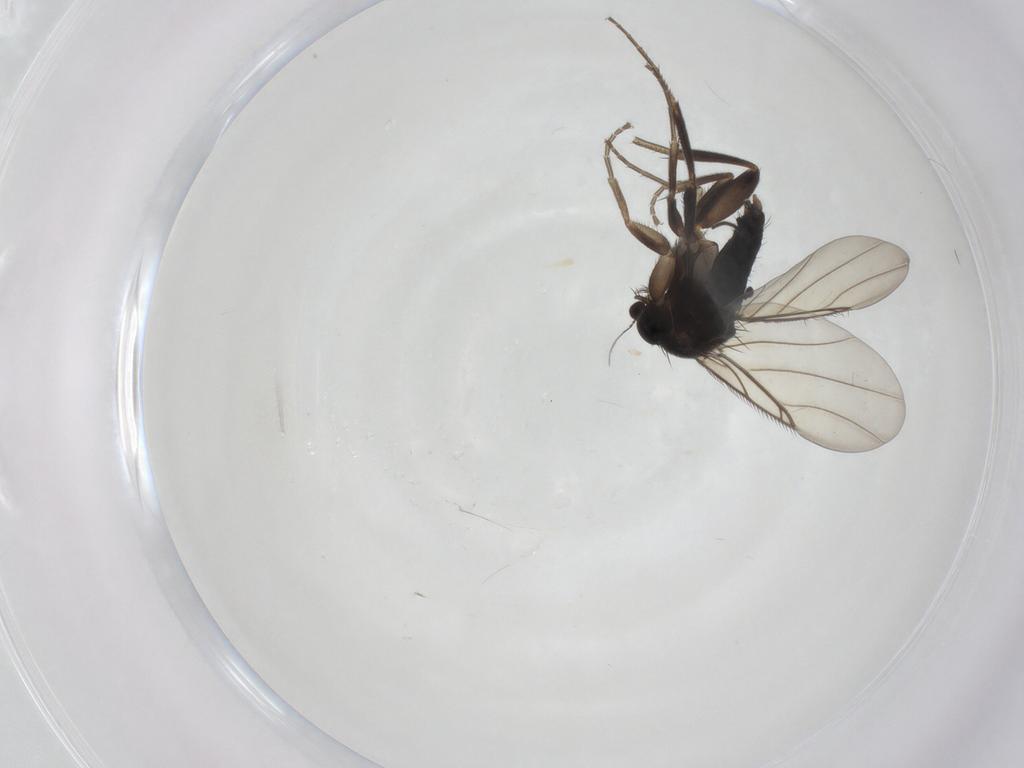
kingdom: Animalia
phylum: Arthropoda
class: Insecta
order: Diptera
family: Phoridae
